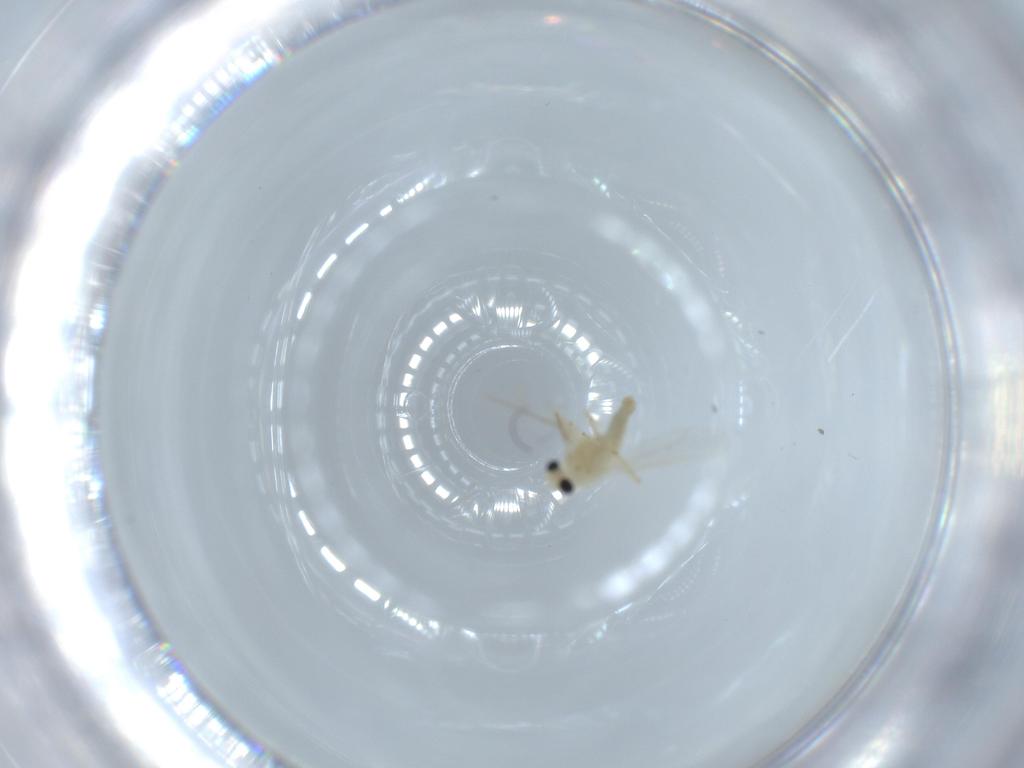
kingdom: Animalia
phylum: Arthropoda
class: Insecta
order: Diptera
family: Chironomidae
